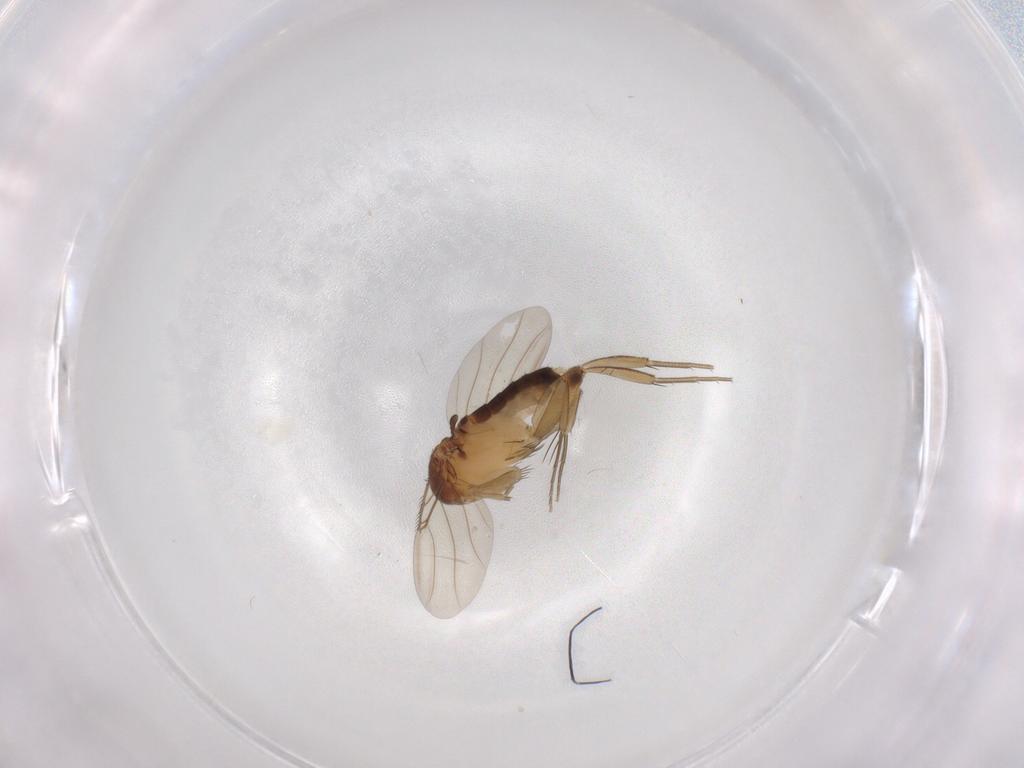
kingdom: Animalia
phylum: Arthropoda
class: Insecta
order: Diptera
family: Phoridae
